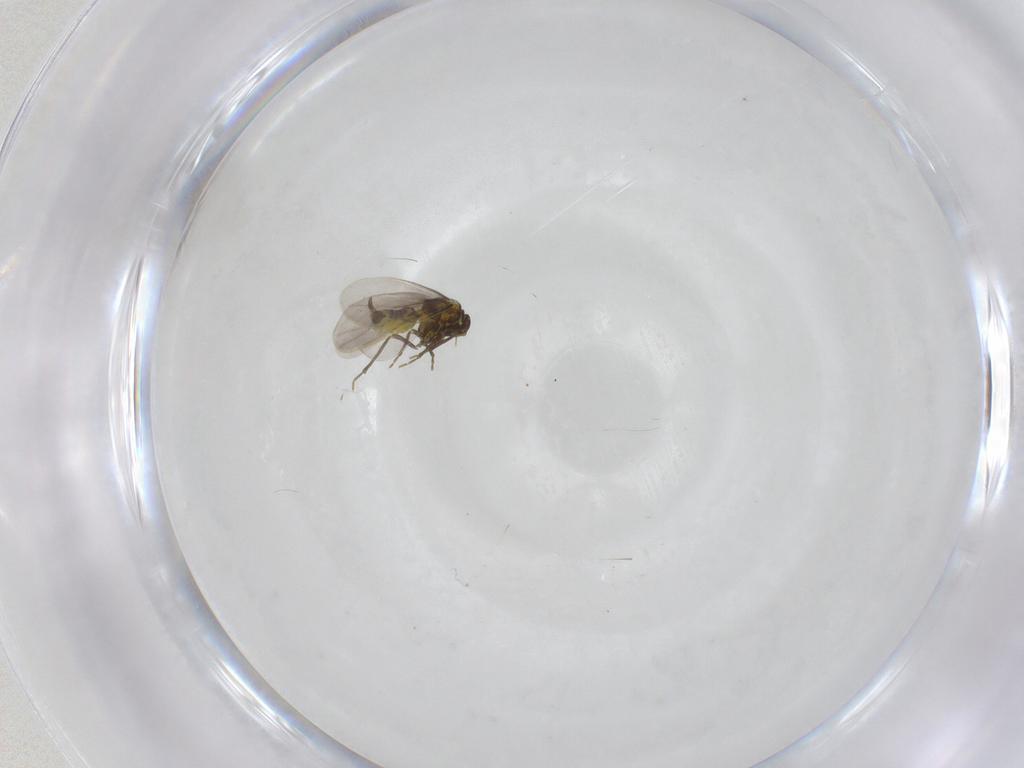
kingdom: Animalia
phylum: Arthropoda
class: Insecta
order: Hemiptera
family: Aleyrodidae
